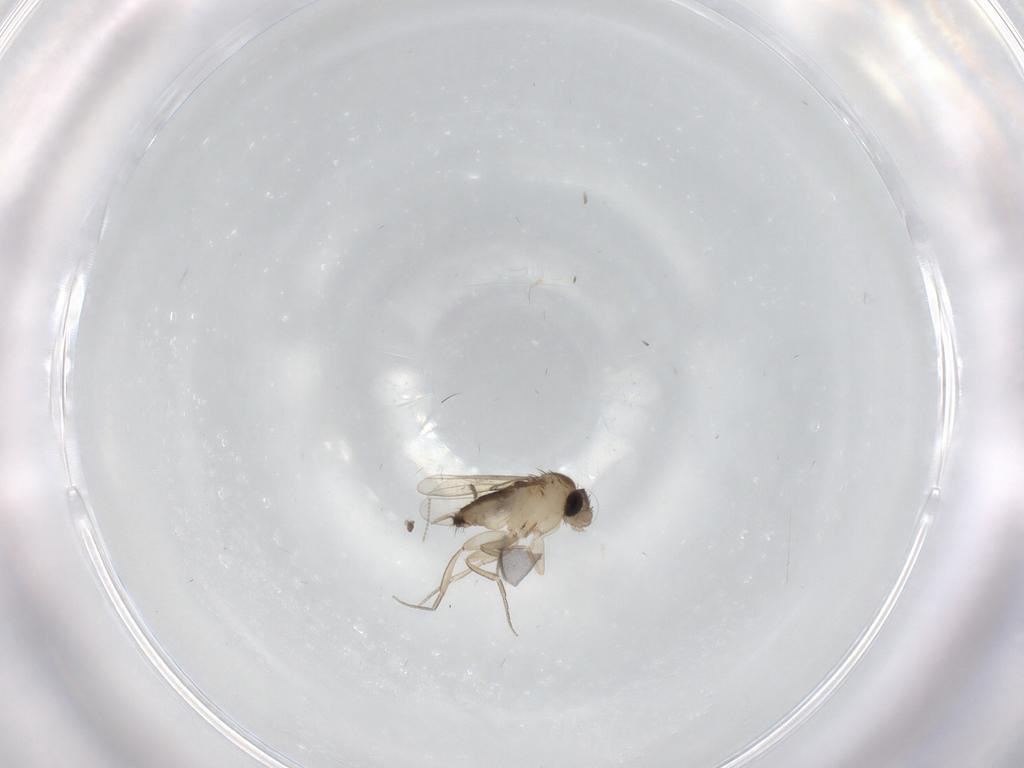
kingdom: Animalia
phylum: Arthropoda
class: Insecta
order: Diptera
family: Phoridae
